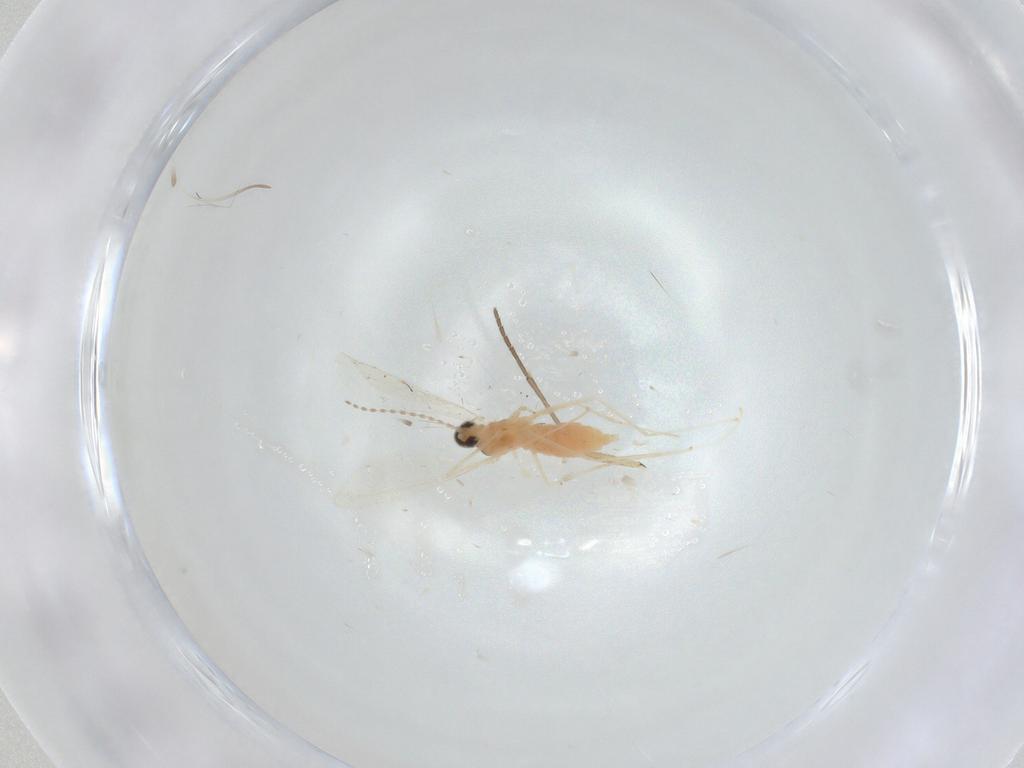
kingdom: Animalia
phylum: Arthropoda
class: Insecta
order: Diptera
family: Cecidomyiidae
